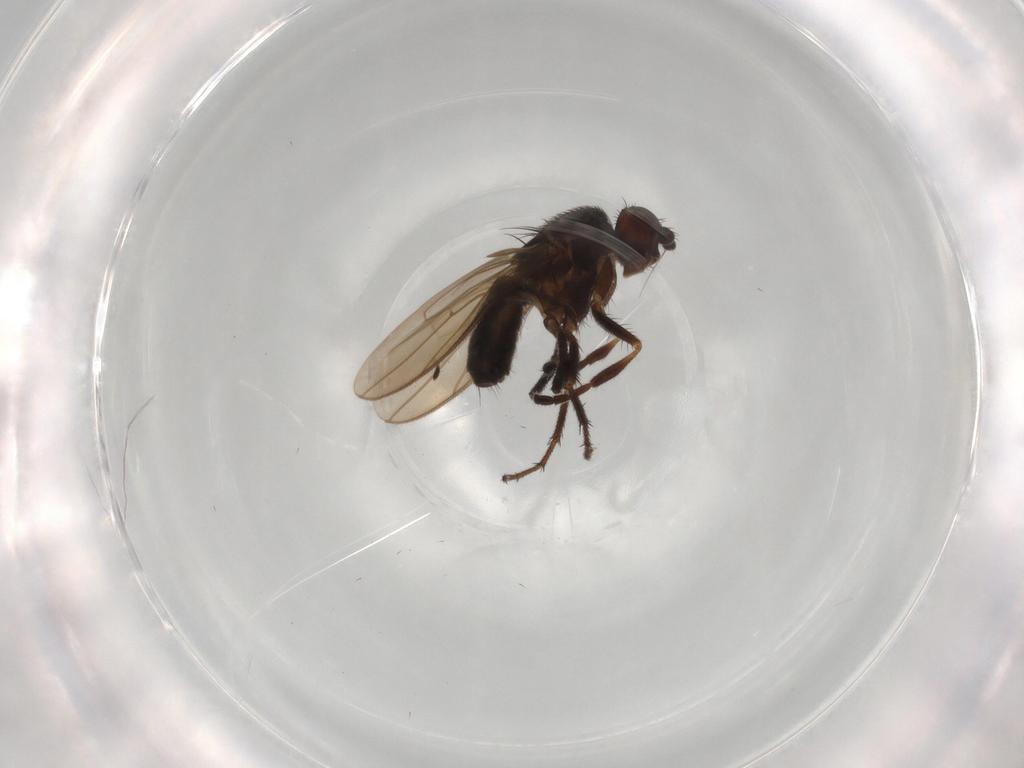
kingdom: Animalia
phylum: Arthropoda
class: Insecta
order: Diptera
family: Sphaeroceridae
